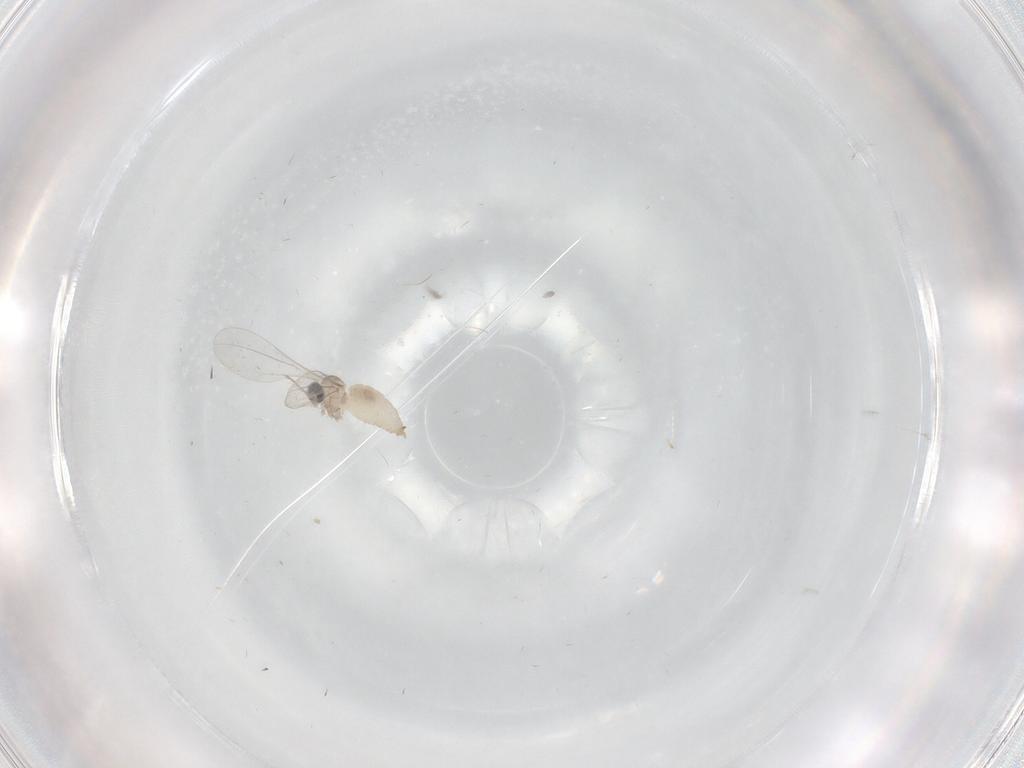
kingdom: Animalia
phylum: Arthropoda
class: Insecta
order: Diptera
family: Cecidomyiidae
